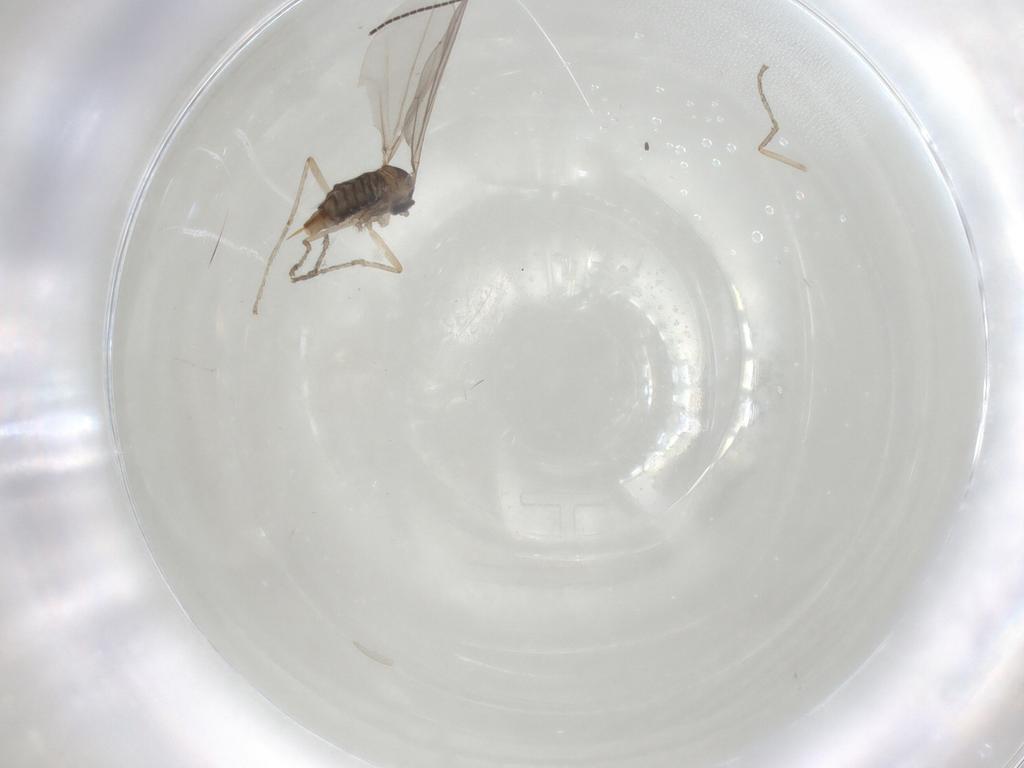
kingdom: Animalia
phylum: Arthropoda
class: Insecta
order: Diptera
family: Cecidomyiidae
